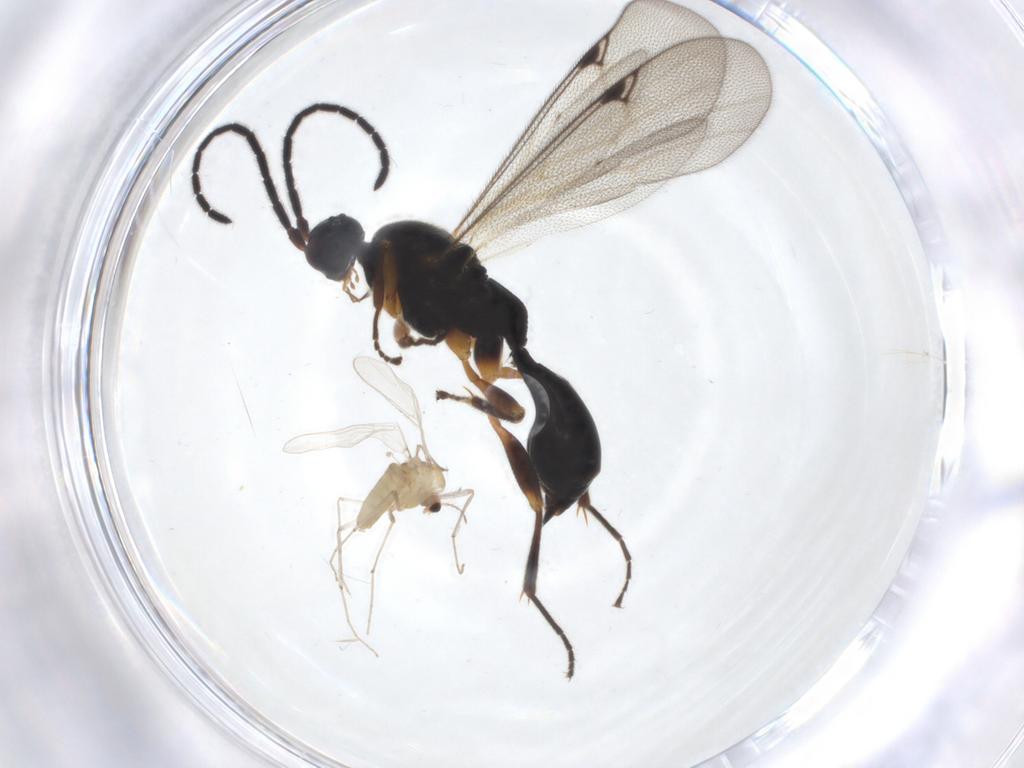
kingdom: Animalia
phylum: Arthropoda
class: Insecta
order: Hymenoptera
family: Proctotrupidae
